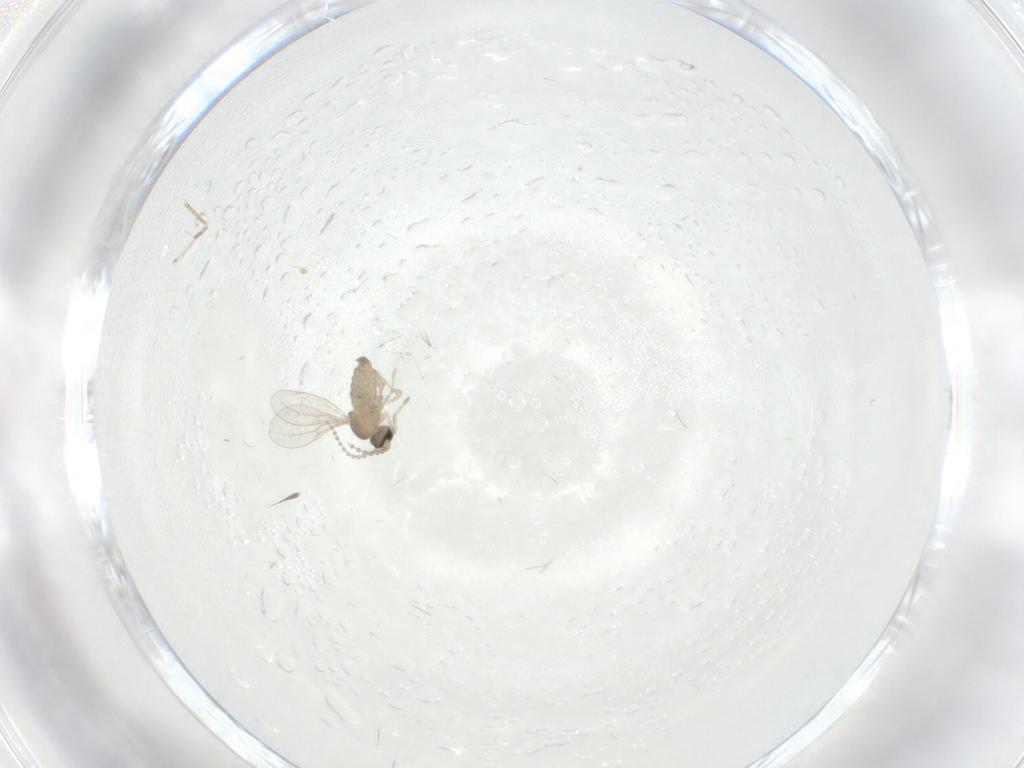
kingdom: Animalia
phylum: Arthropoda
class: Insecta
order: Diptera
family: Cecidomyiidae
